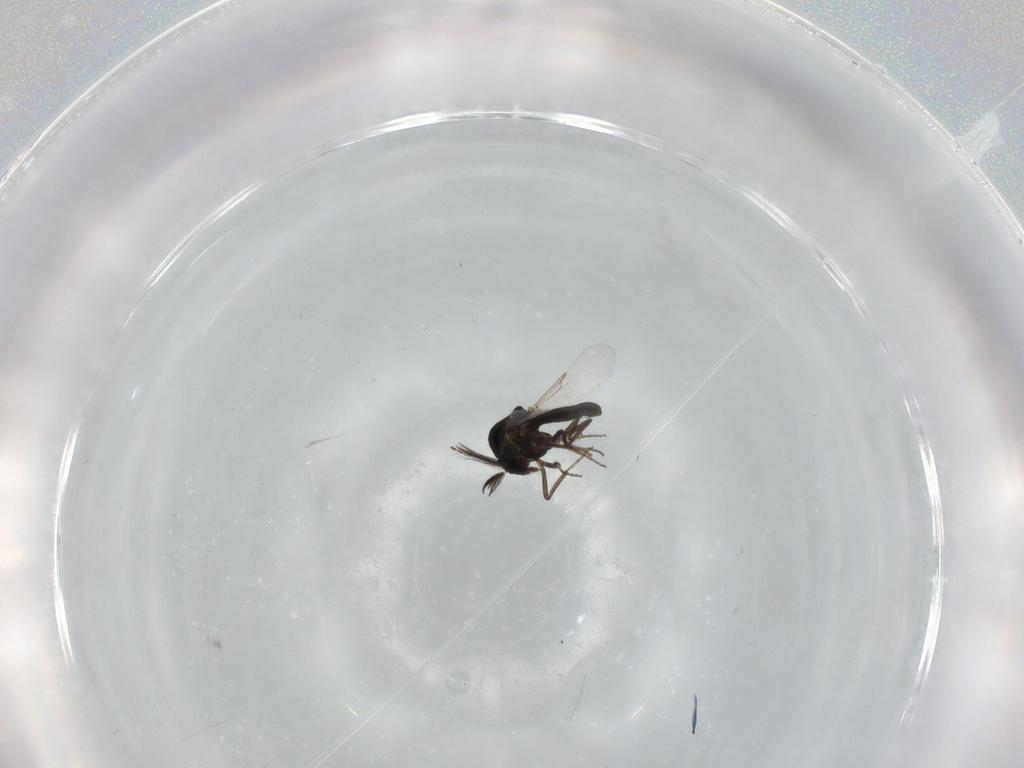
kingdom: Animalia
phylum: Arthropoda
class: Insecta
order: Diptera
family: Ceratopogonidae
